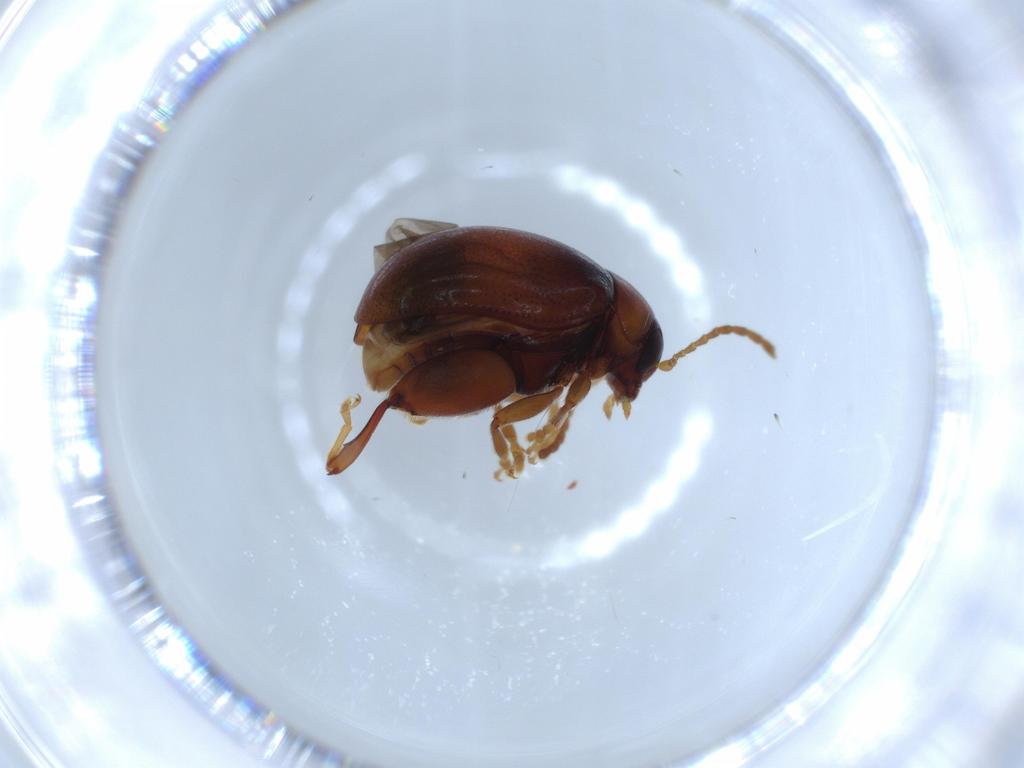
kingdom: Animalia
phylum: Arthropoda
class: Insecta
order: Coleoptera
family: Chrysomelidae
